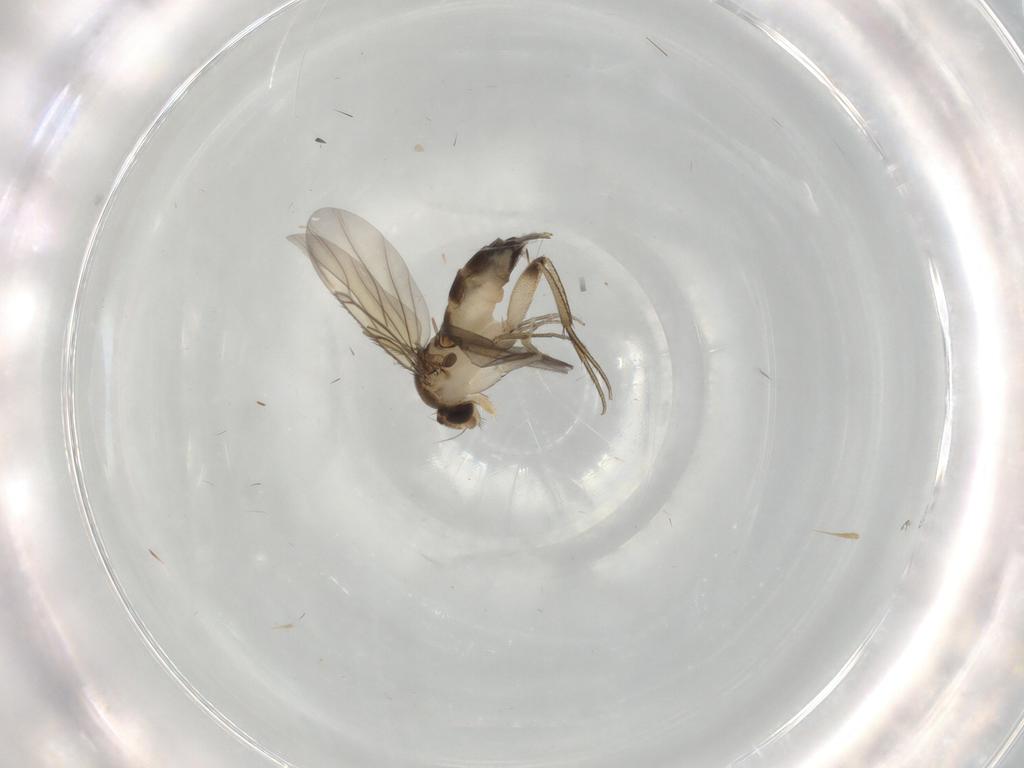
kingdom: Animalia
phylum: Arthropoda
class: Insecta
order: Diptera
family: Phoridae
